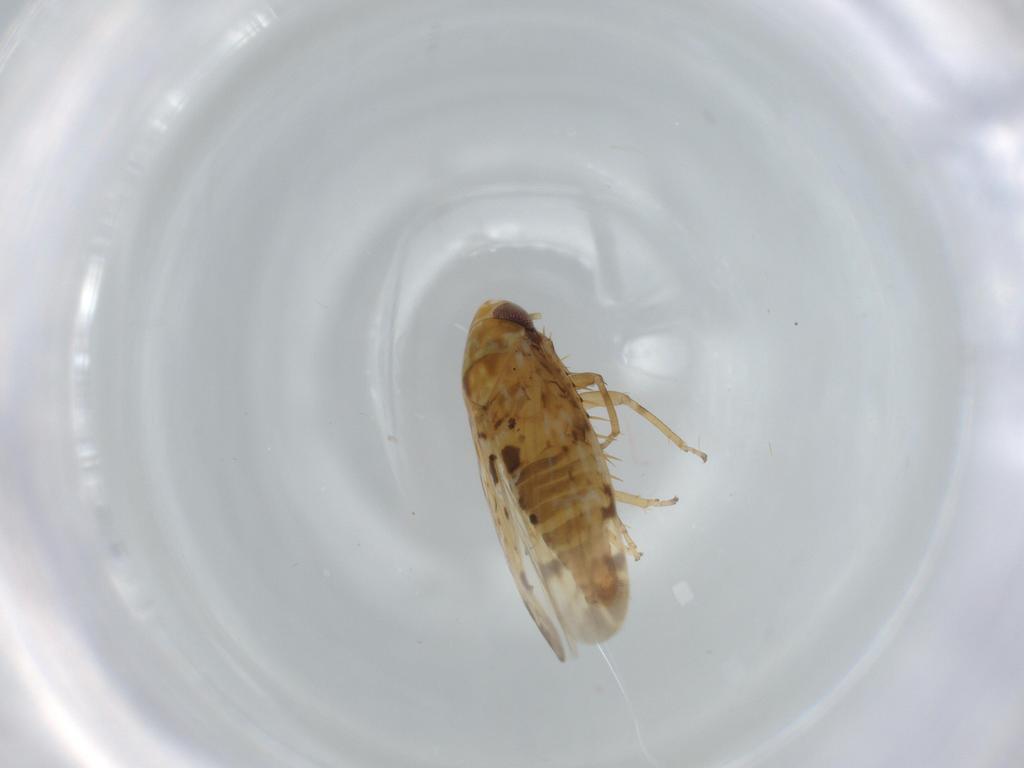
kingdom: Animalia
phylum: Arthropoda
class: Insecta
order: Hemiptera
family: Cicadellidae
